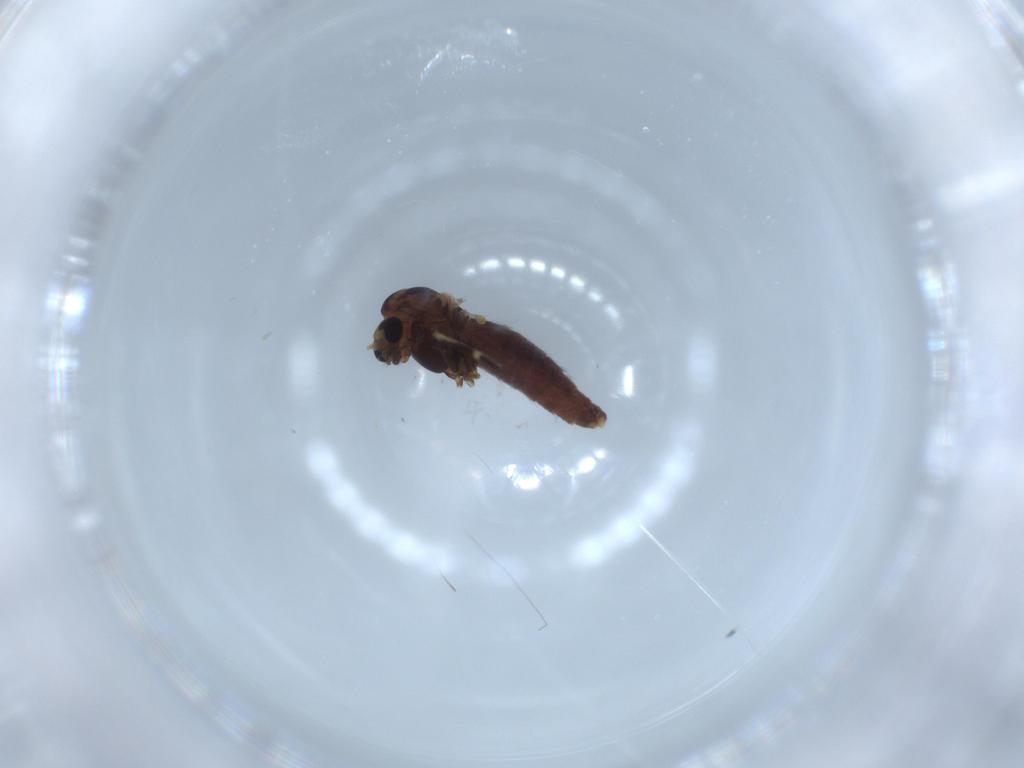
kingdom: Animalia
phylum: Arthropoda
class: Insecta
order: Diptera
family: Chironomidae
